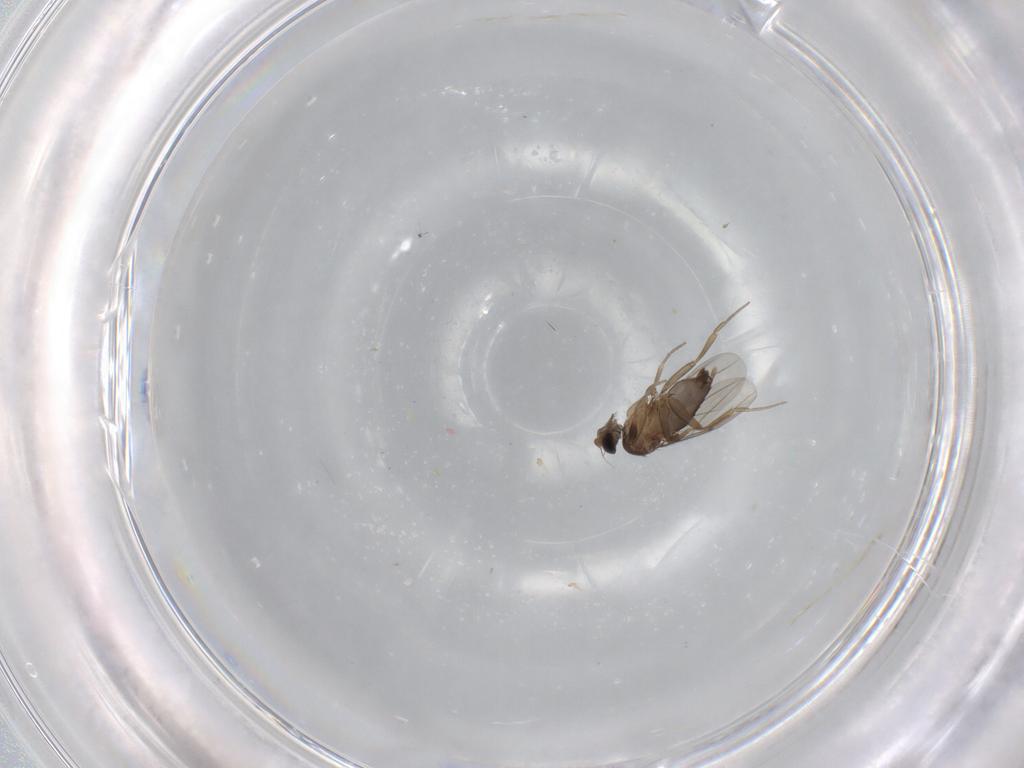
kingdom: Animalia
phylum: Arthropoda
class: Insecta
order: Diptera
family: Phoridae
